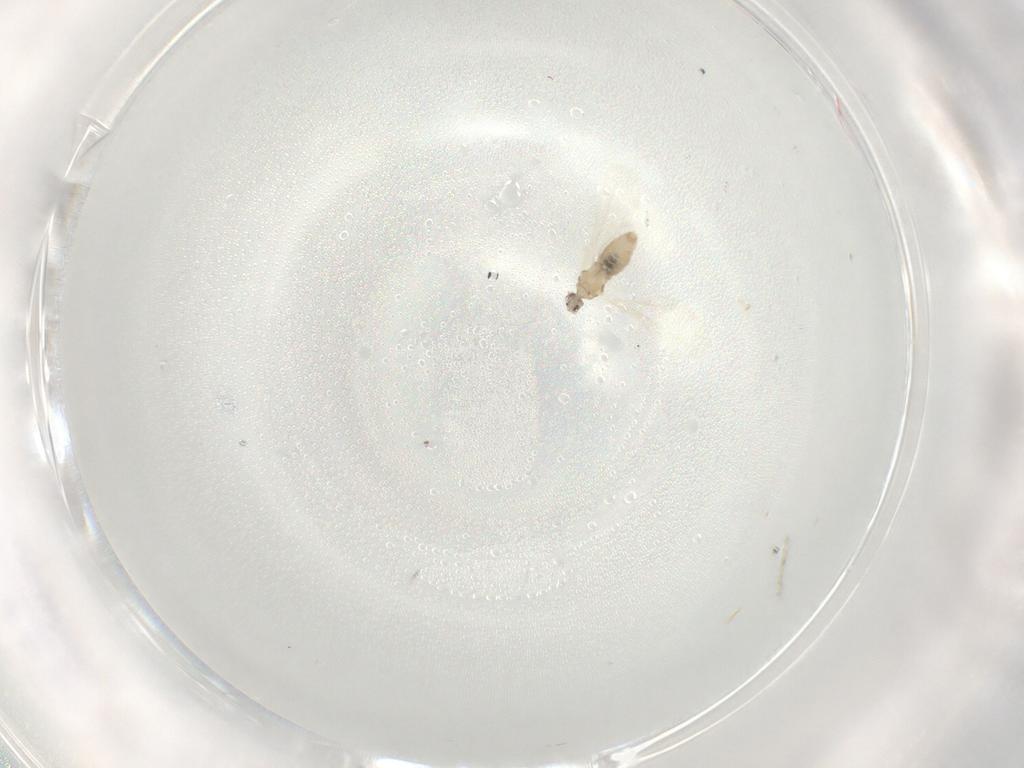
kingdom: Animalia
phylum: Arthropoda
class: Insecta
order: Diptera
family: Cecidomyiidae
